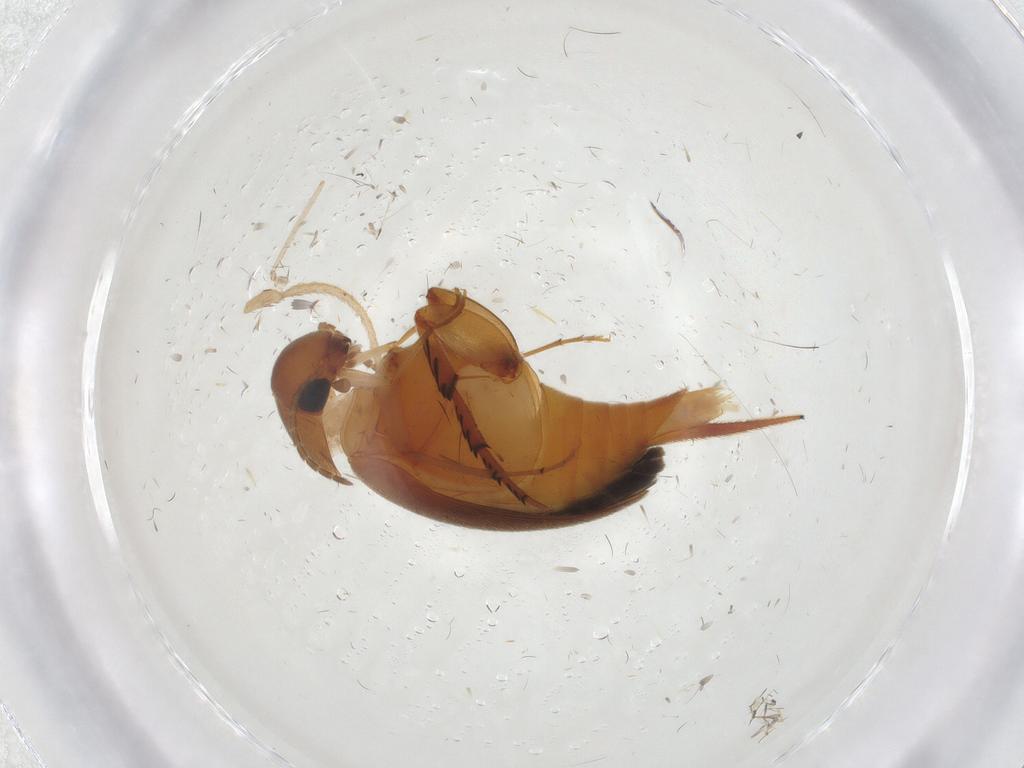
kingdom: Animalia
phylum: Arthropoda
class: Insecta
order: Coleoptera
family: Mordellidae
